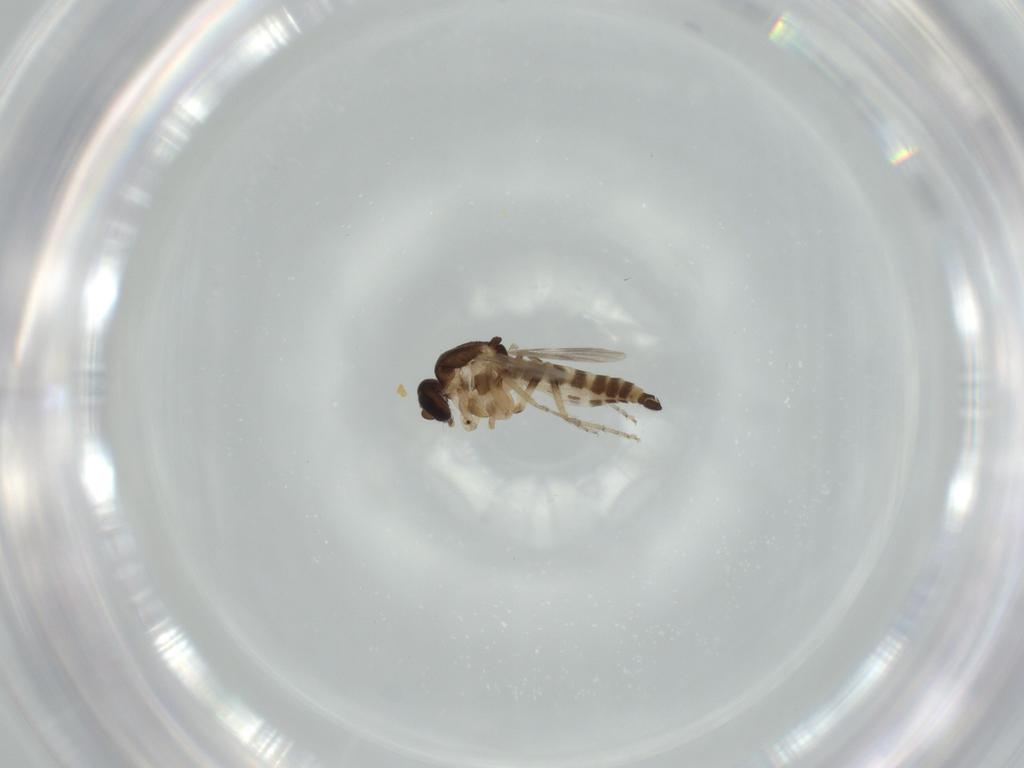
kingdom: Animalia
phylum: Arthropoda
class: Insecta
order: Diptera
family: Ceratopogonidae
